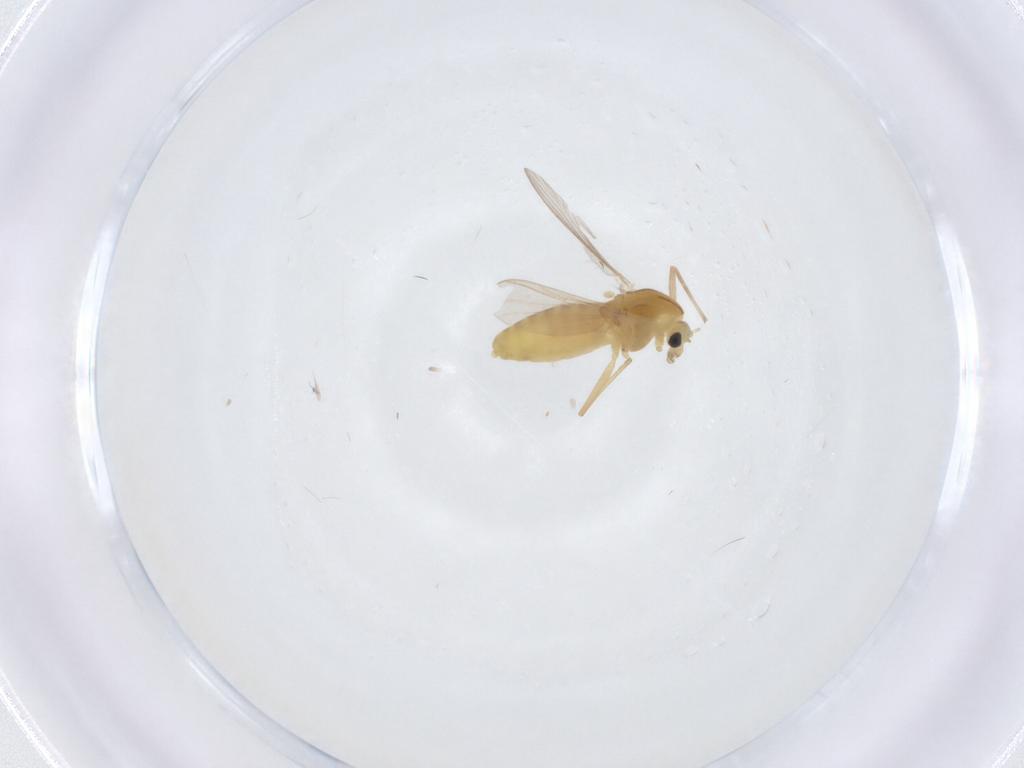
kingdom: Animalia
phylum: Arthropoda
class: Insecta
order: Diptera
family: Chironomidae
